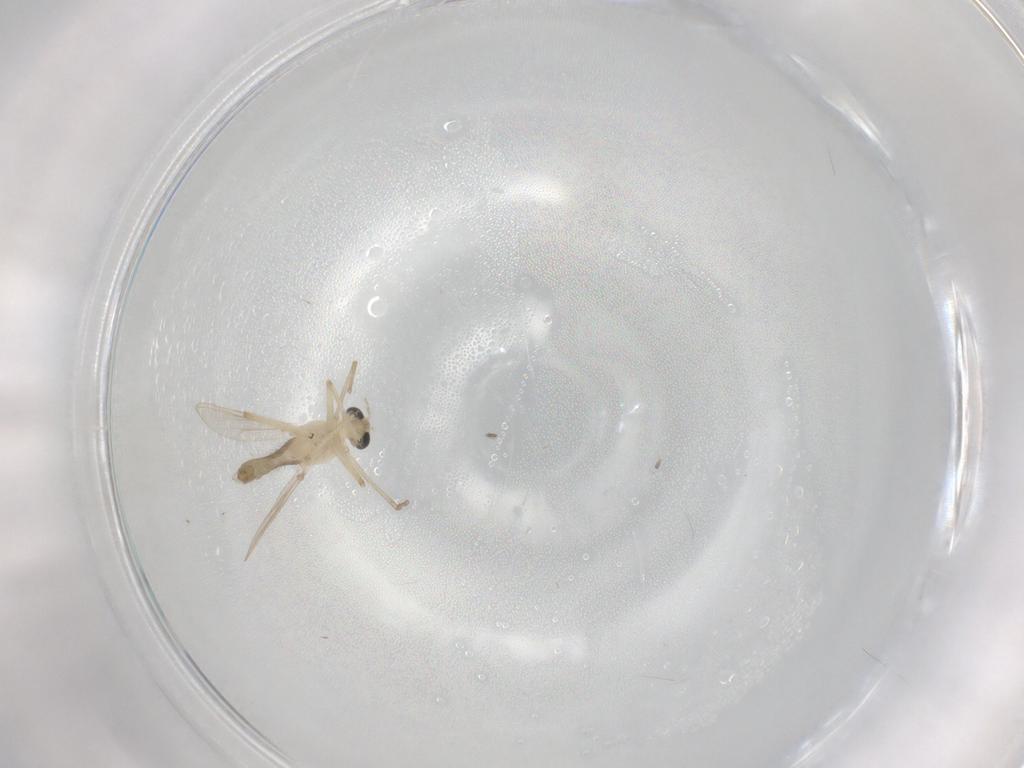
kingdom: Animalia
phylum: Arthropoda
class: Insecta
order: Diptera
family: Chironomidae
